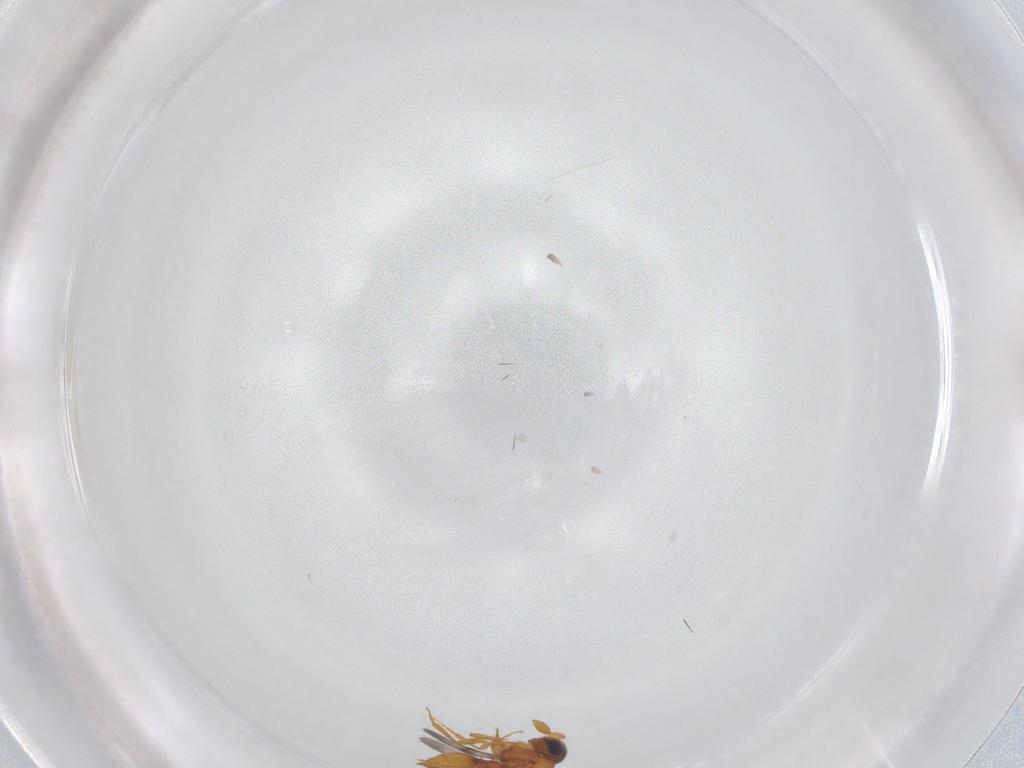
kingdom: Animalia
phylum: Arthropoda
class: Insecta
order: Hymenoptera
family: Scelionidae
